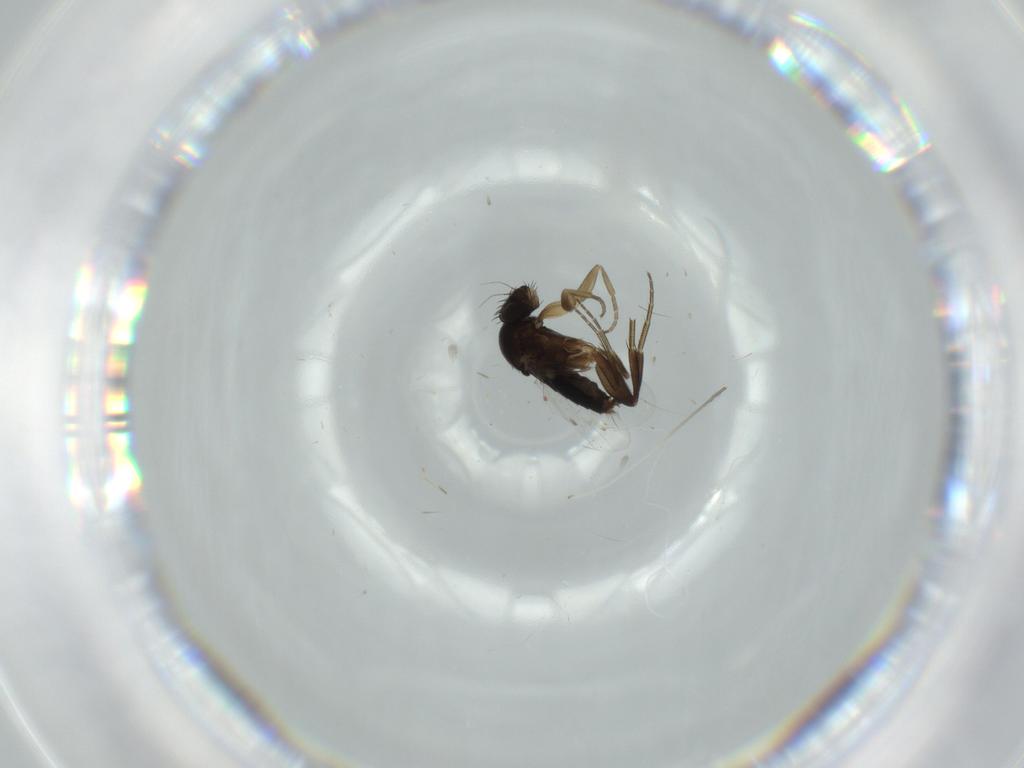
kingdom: Animalia
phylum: Arthropoda
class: Insecta
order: Diptera
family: Phoridae
